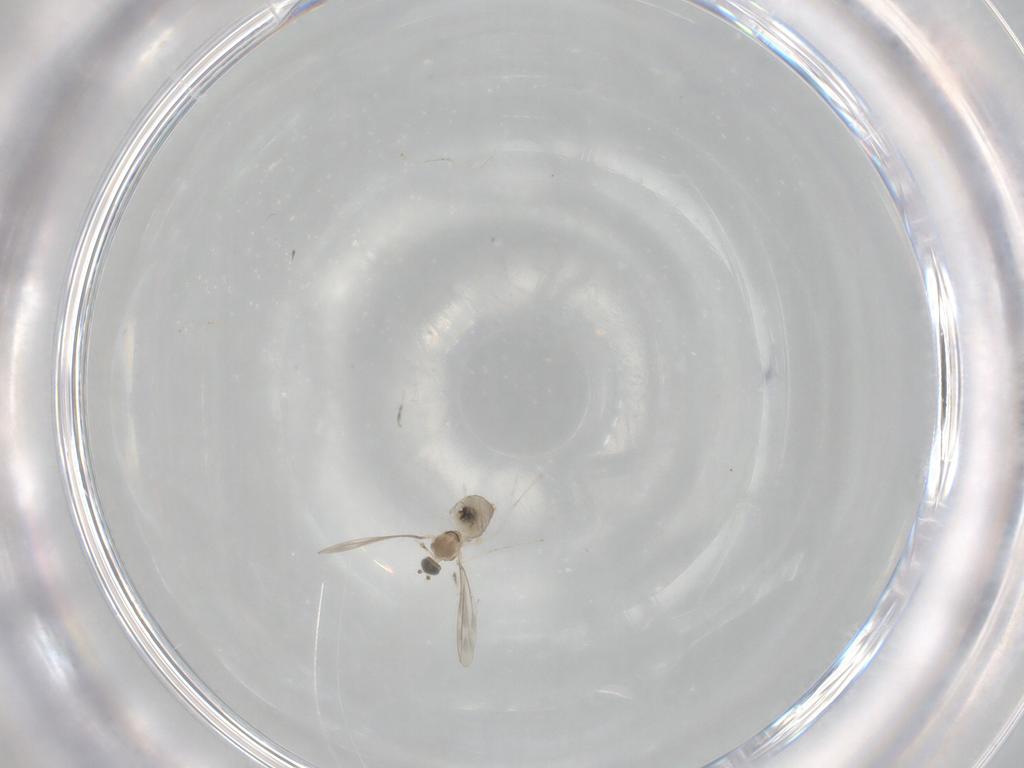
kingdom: Animalia
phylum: Arthropoda
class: Insecta
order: Diptera
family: Cecidomyiidae
